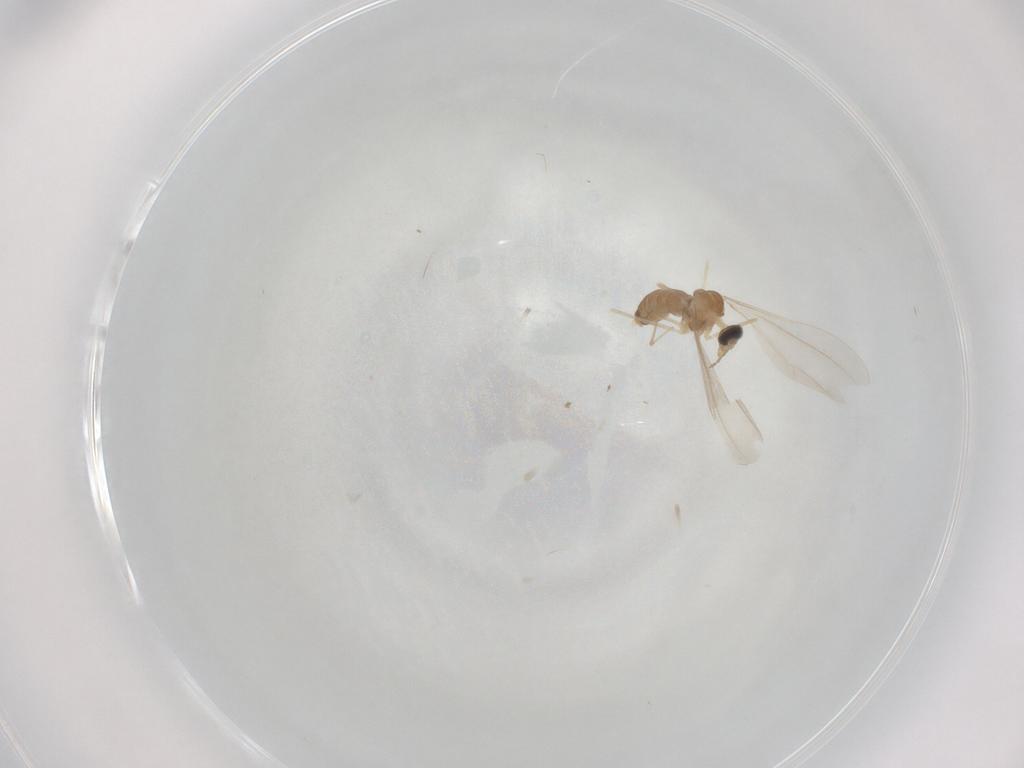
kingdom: Animalia
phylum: Arthropoda
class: Insecta
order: Diptera
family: Cecidomyiidae
